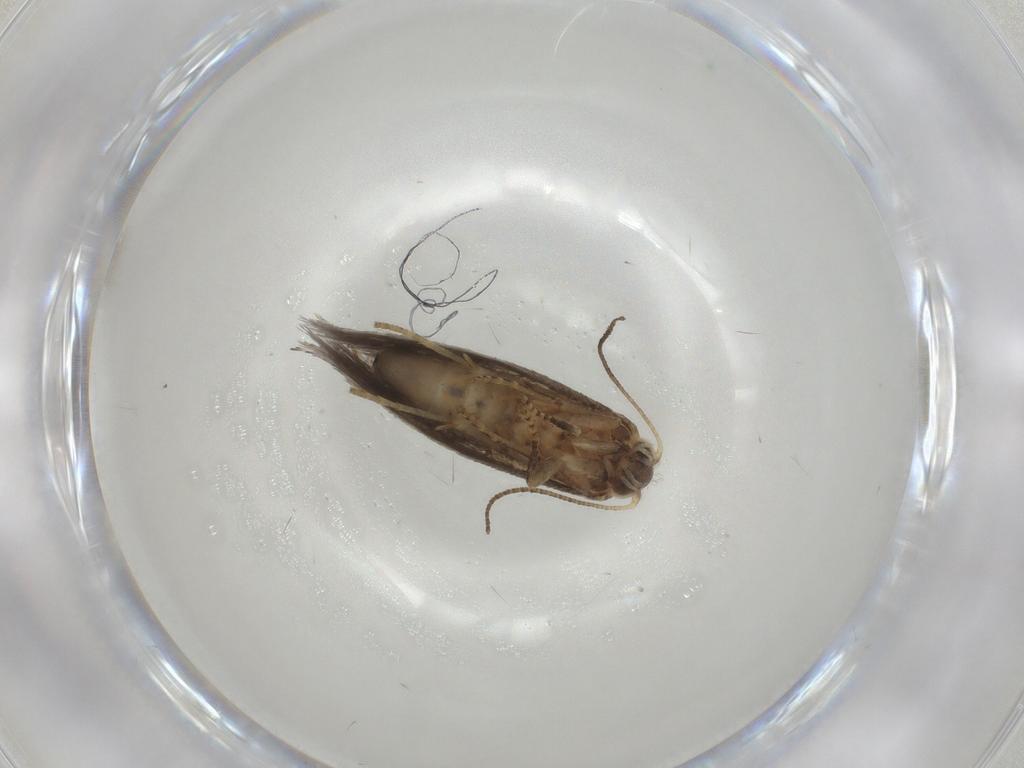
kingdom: Animalia
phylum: Arthropoda
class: Insecta
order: Lepidoptera
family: Incurvariidae
